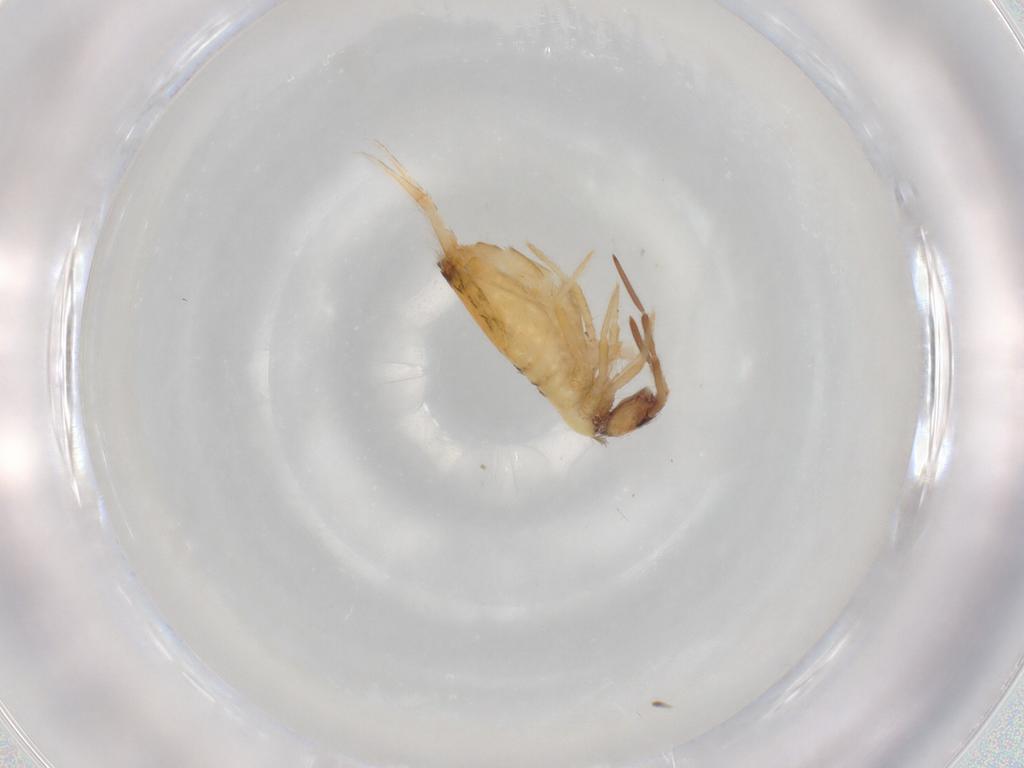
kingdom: Animalia
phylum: Arthropoda
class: Collembola
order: Entomobryomorpha
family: Entomobryidae
